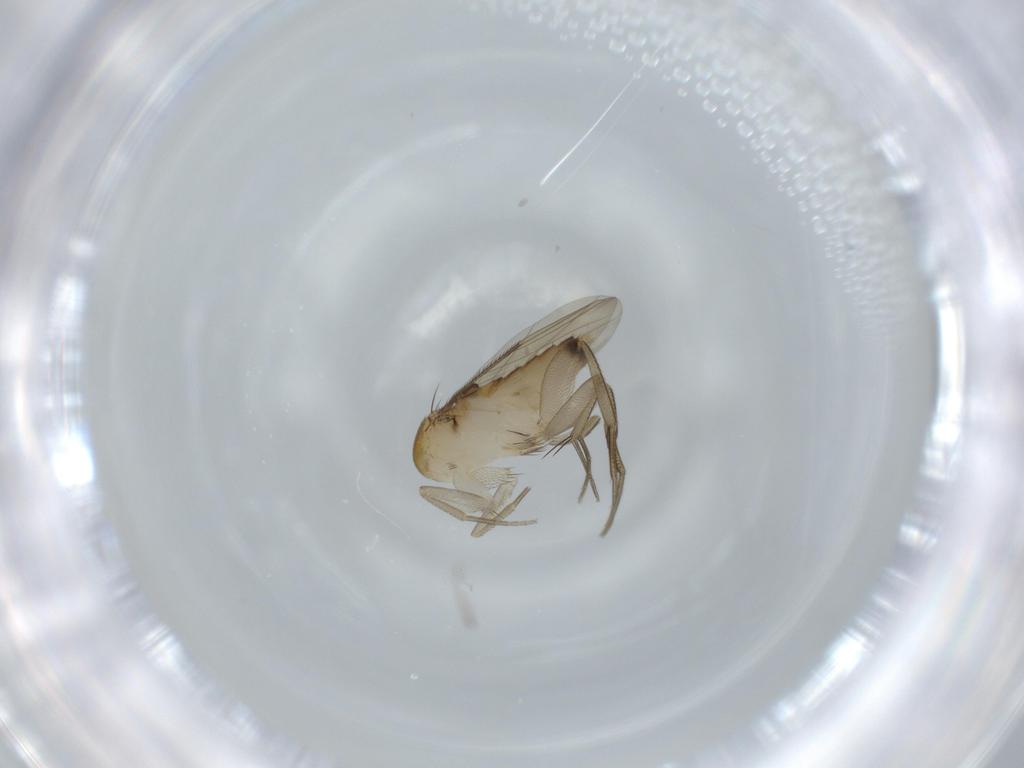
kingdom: Animalia
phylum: Arthropoda
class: Insecta
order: Diptera
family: Phoridae
